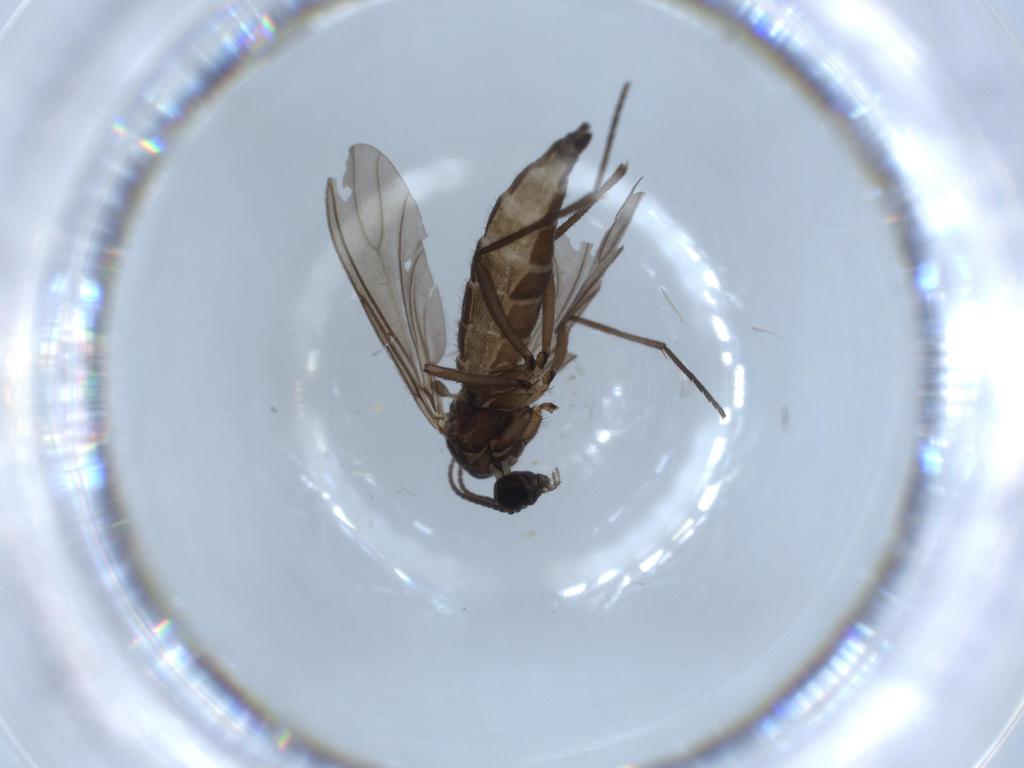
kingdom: Animalia
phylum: Arthropoda
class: Insecta
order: Diptera
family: Sciaridae
